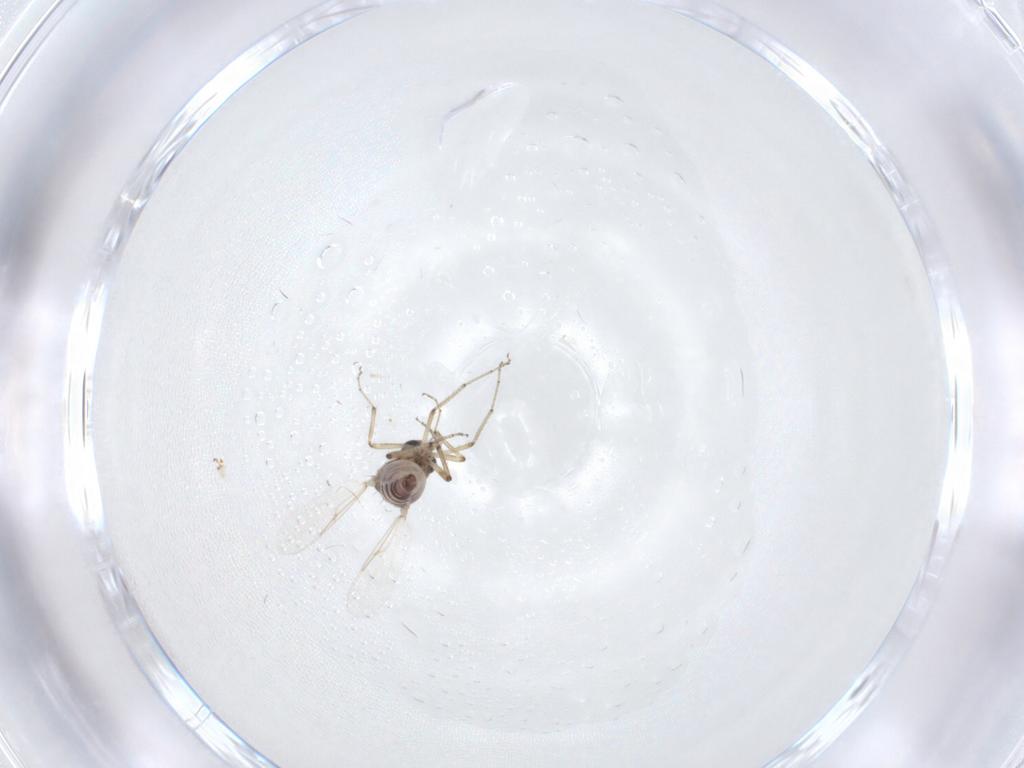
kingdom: Animalia
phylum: Arthropoda
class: Insecta
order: Diptera
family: Ceratopogonidae
